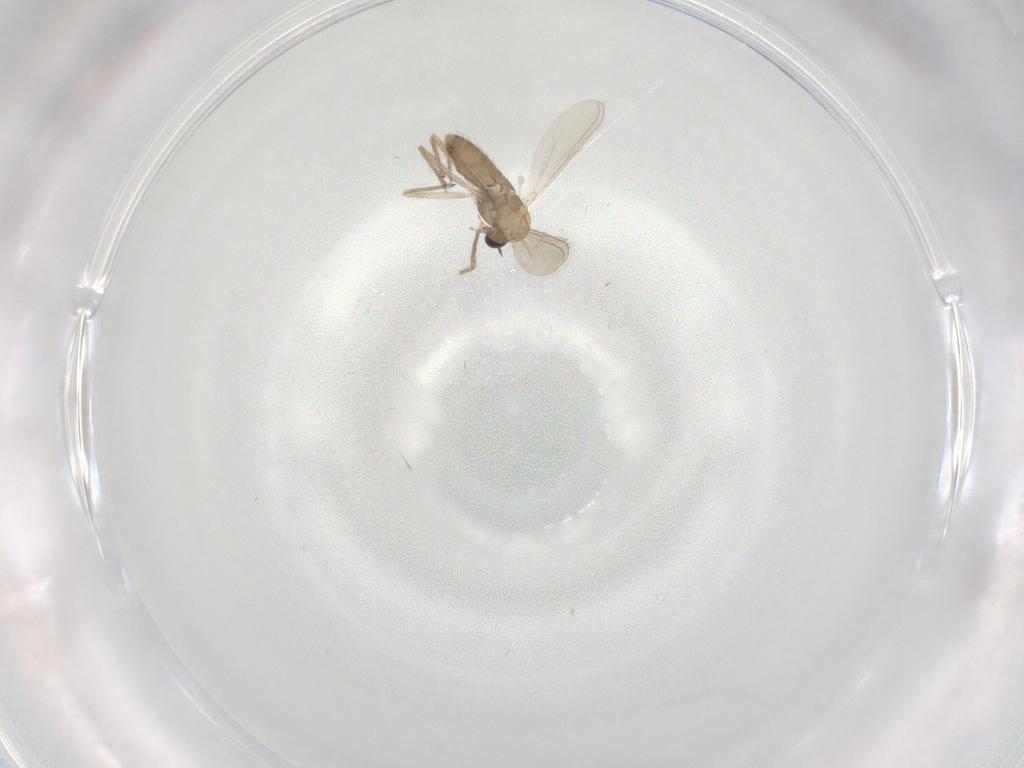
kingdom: Animalia
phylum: Arthropoda
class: Insecta
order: Diptera
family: Chironomidae
